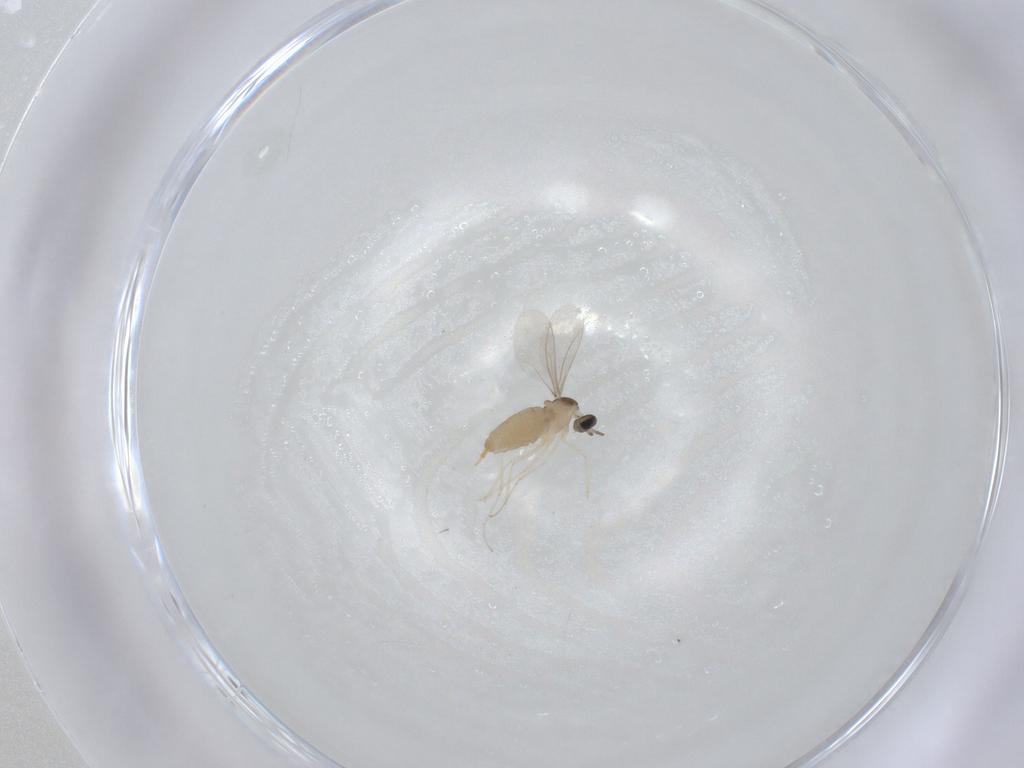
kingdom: Animalia
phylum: Arthropoda
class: Insecta
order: Diptera
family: Cecidomyiidae
